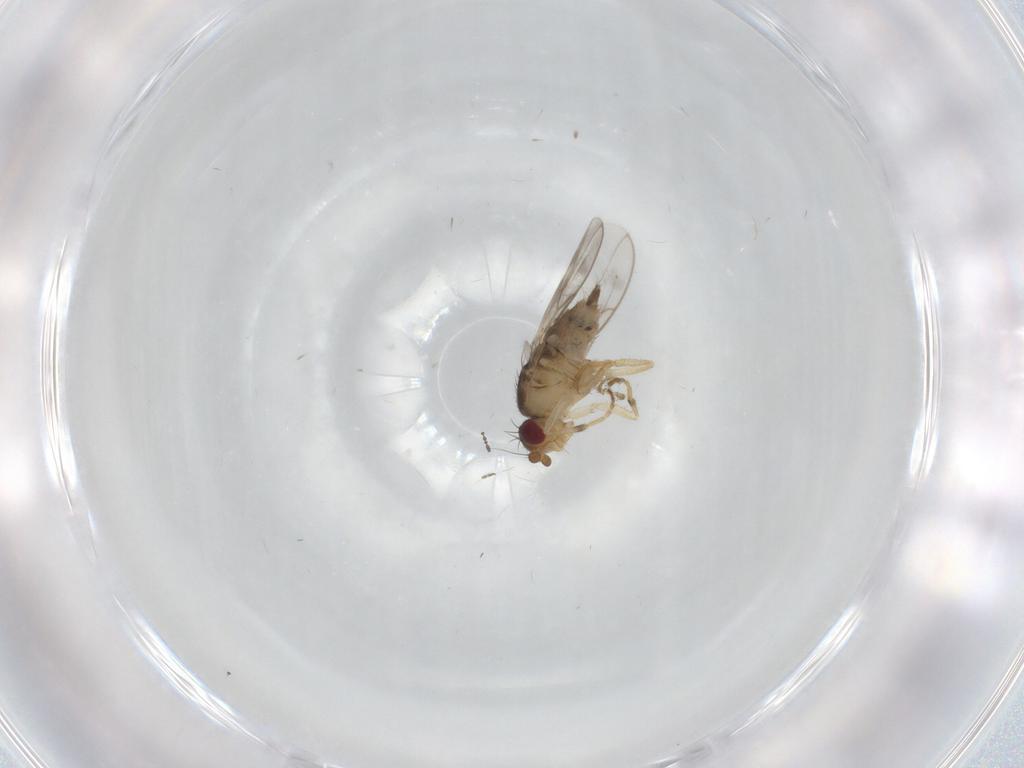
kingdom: Animalia
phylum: Arthropoda
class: Insecta
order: Diptera
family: Sphaeroceridae
